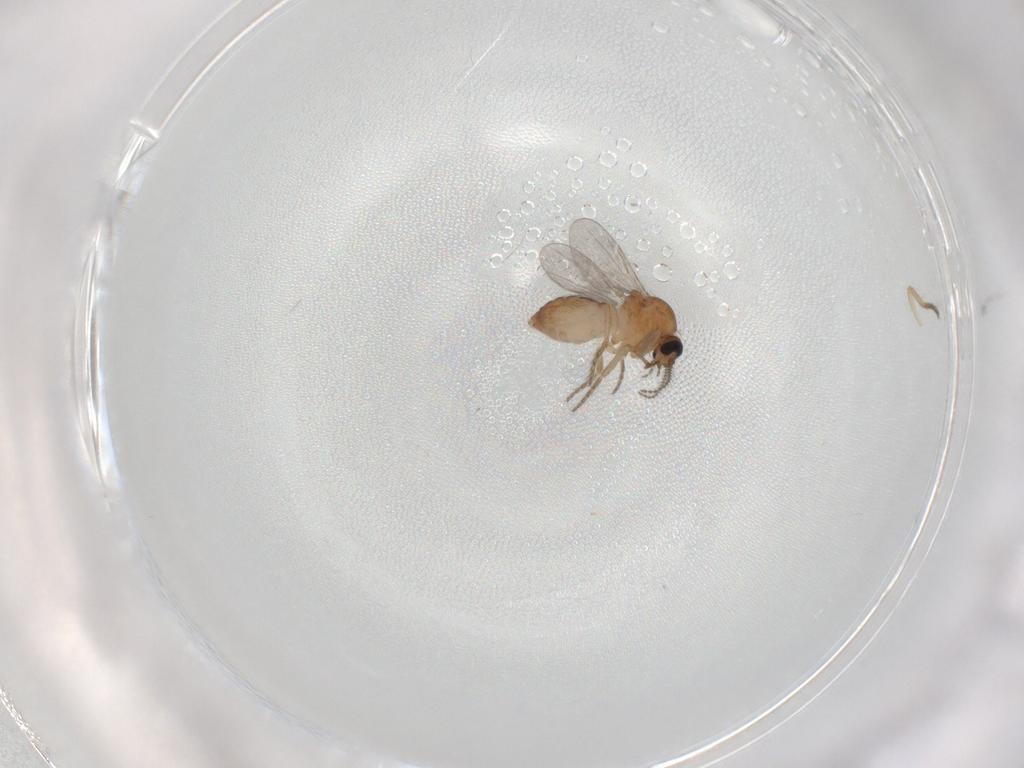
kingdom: Animalia
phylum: Arthropoda
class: Insecta
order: Diptera
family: Ceratopogonidae
